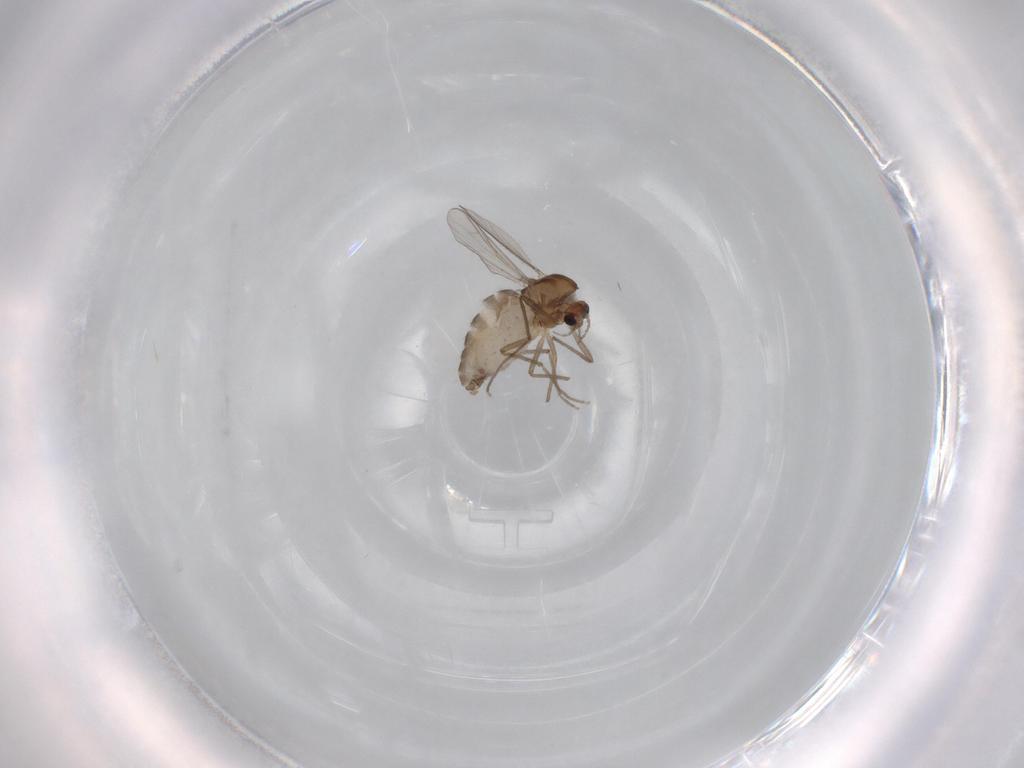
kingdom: Animalia
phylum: Arthropoda
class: Insecta
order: Diptera
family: Chironomidae
